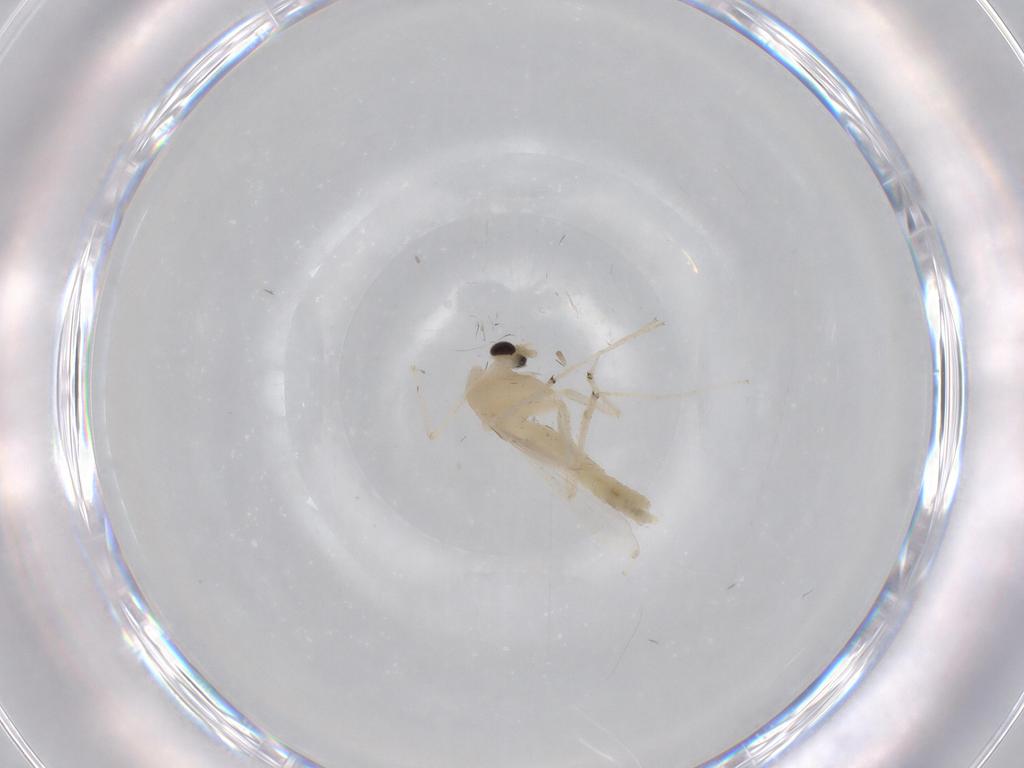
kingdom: Animalia
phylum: Arthropoda
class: Insecta
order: Diptera
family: Chironomidae
